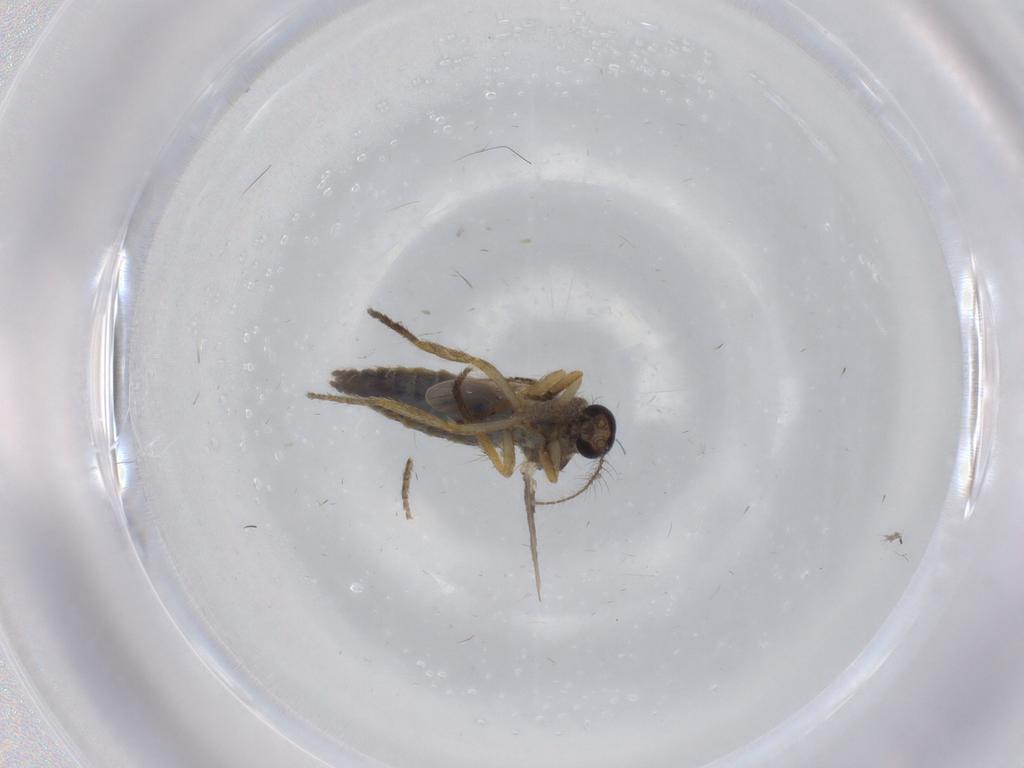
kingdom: Animalia
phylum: Arthropoda
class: Insecta
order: Diptera
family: Ceratopogonidae
